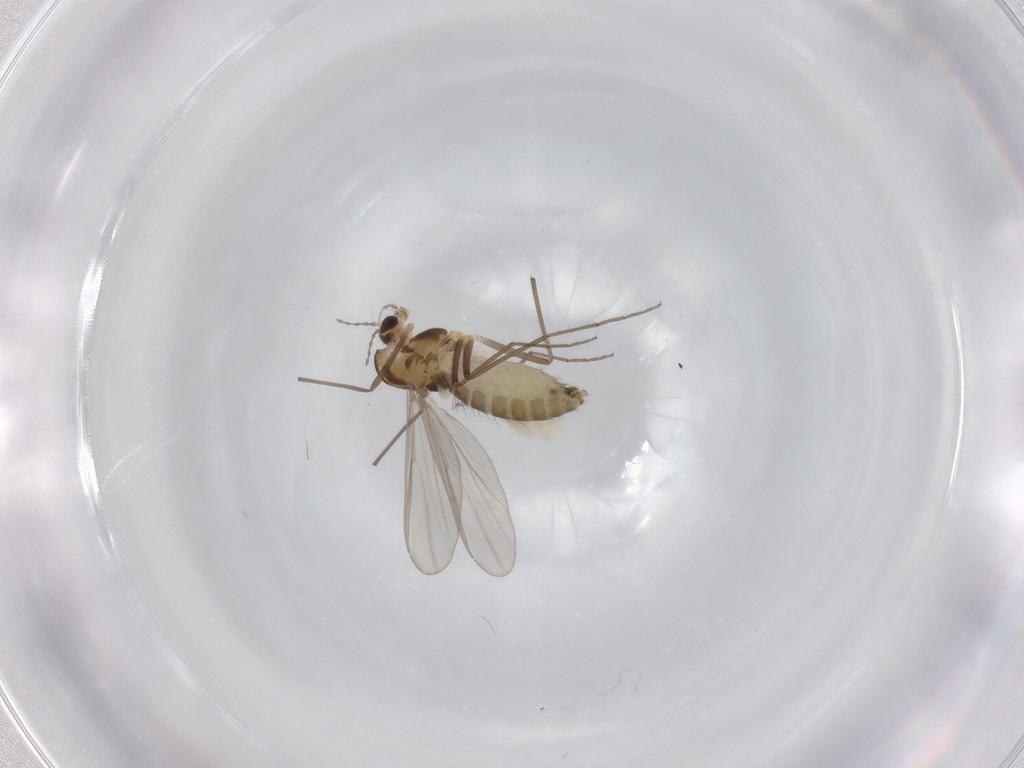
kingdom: Animalia
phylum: Arthropoda
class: Insecta
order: Diptera
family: Chironomidae
